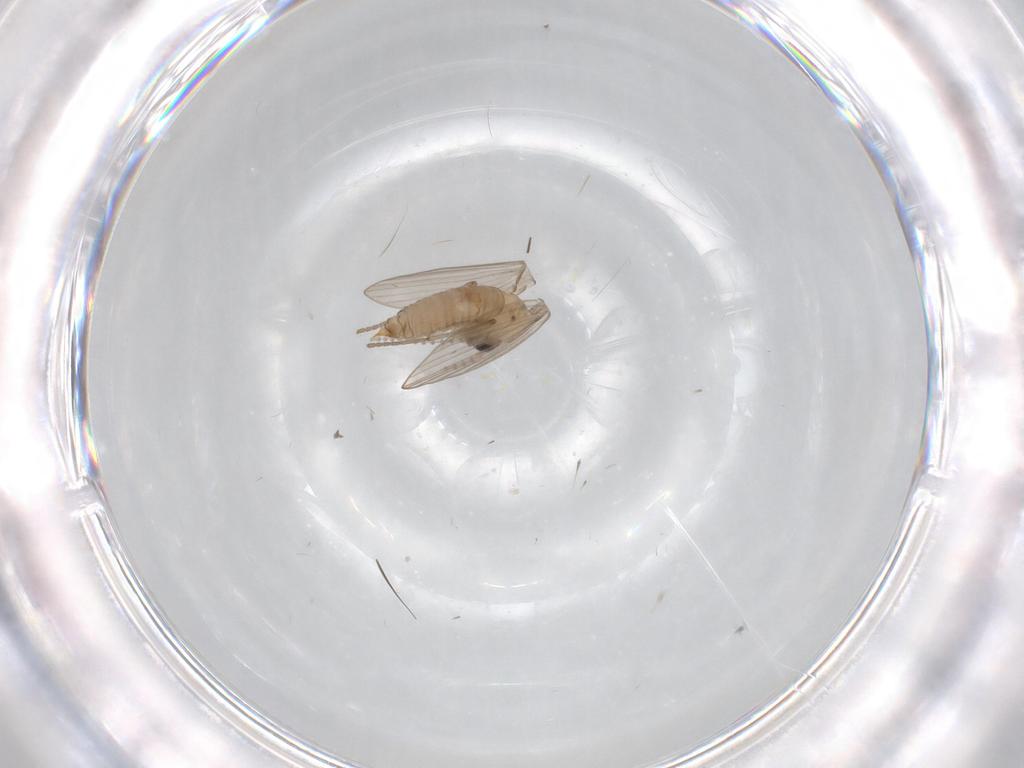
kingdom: Animalia
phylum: Arthropoda
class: Insecta
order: Diptera
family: Psychodidae
